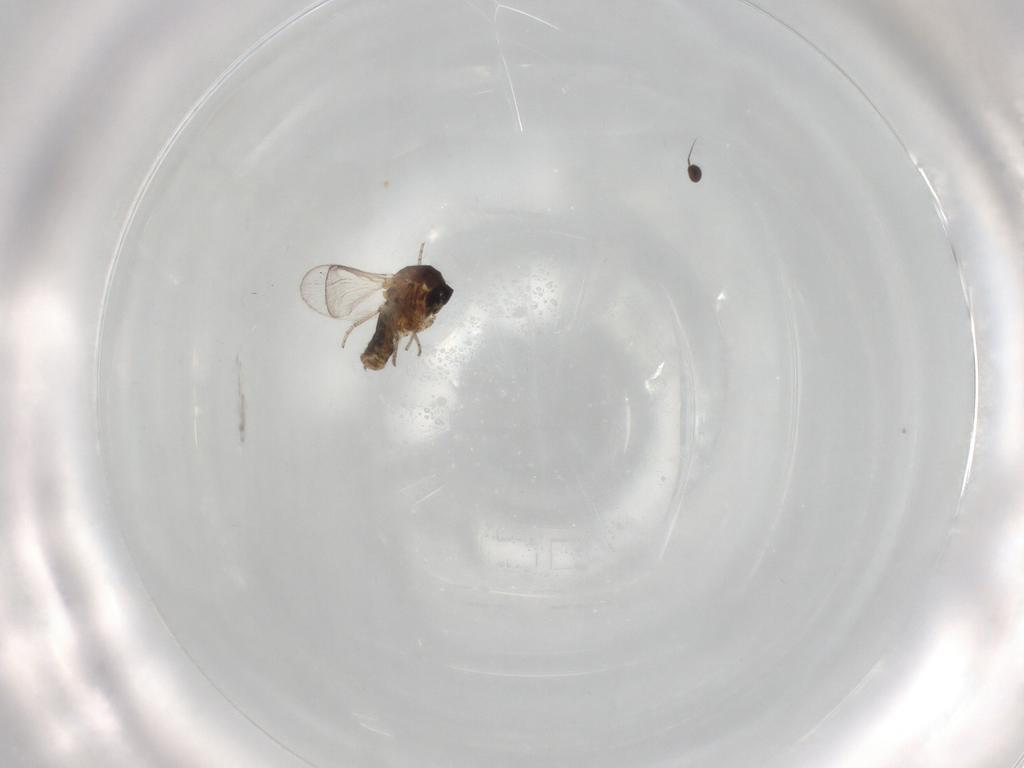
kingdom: Animalia
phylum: Arthropoda
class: Insecta
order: Diptera
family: Ceratopogonidae
